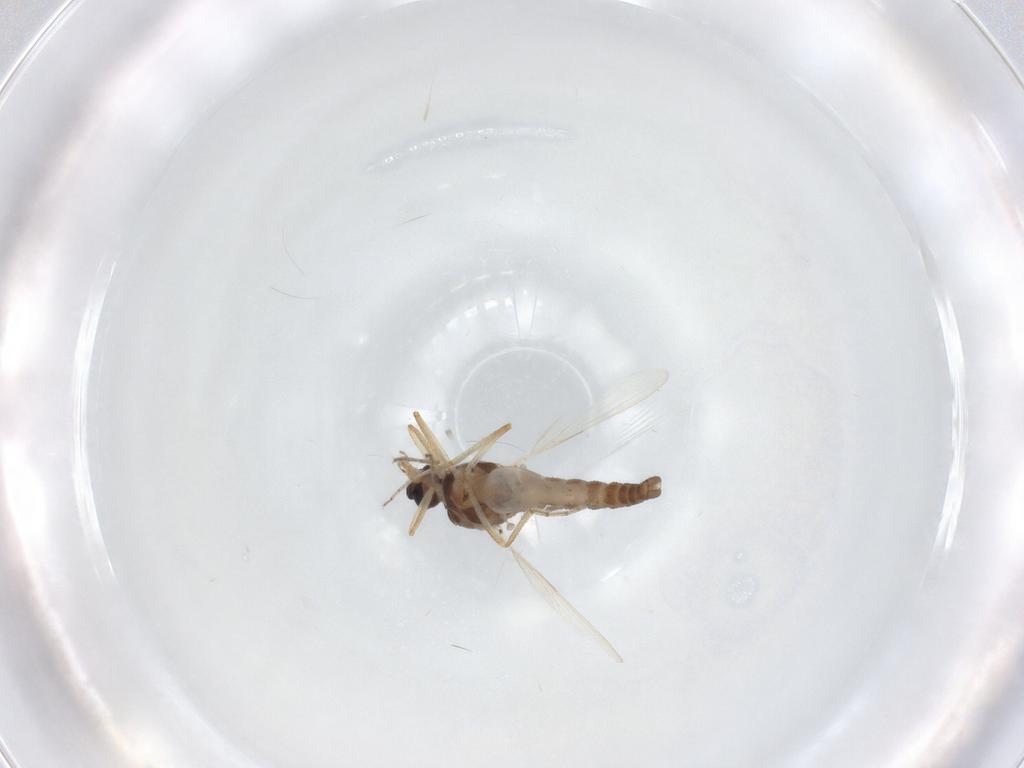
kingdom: Animalia
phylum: Arthropoda
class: Insecta
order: Diptera
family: Ceratopogonidae
